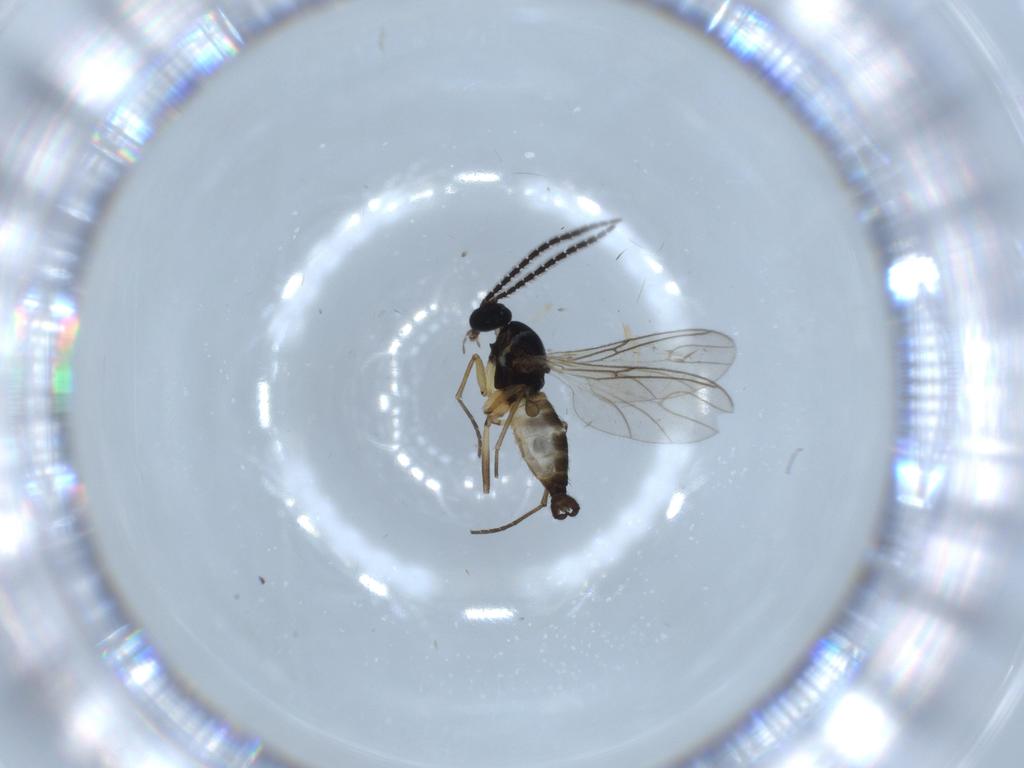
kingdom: Animalia
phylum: Arthropoda
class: Insecta
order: Diptera
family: Sciaridae
